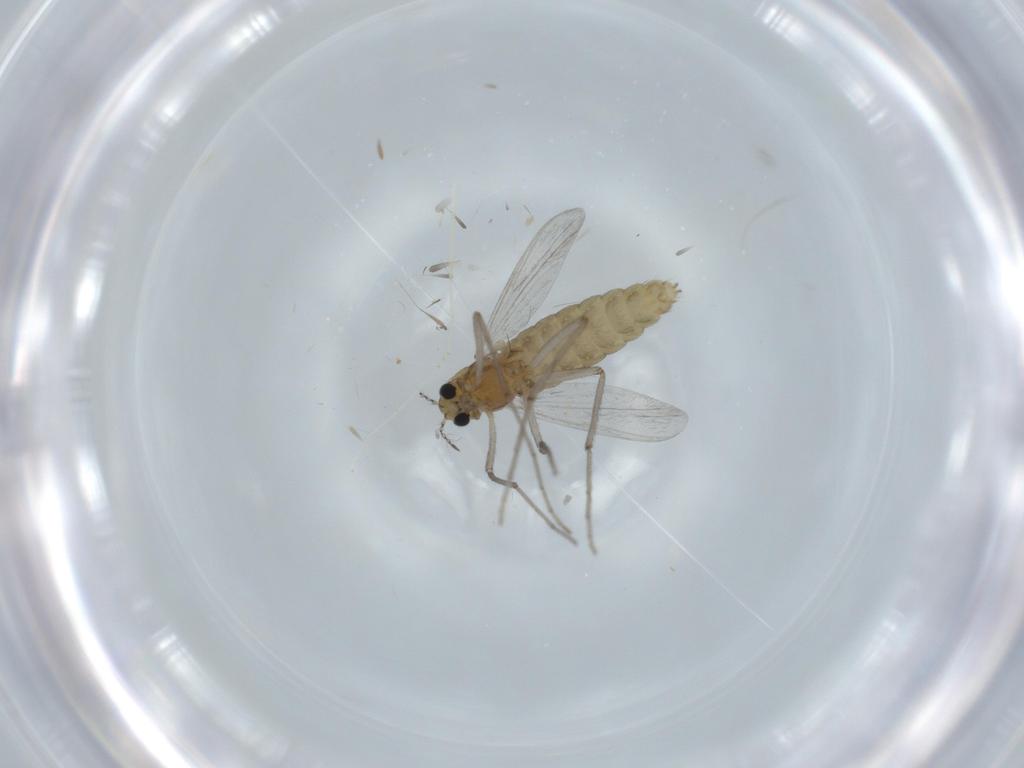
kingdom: Animalia
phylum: Arthropoda
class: Insecta
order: Diptera
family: Chironomidae
